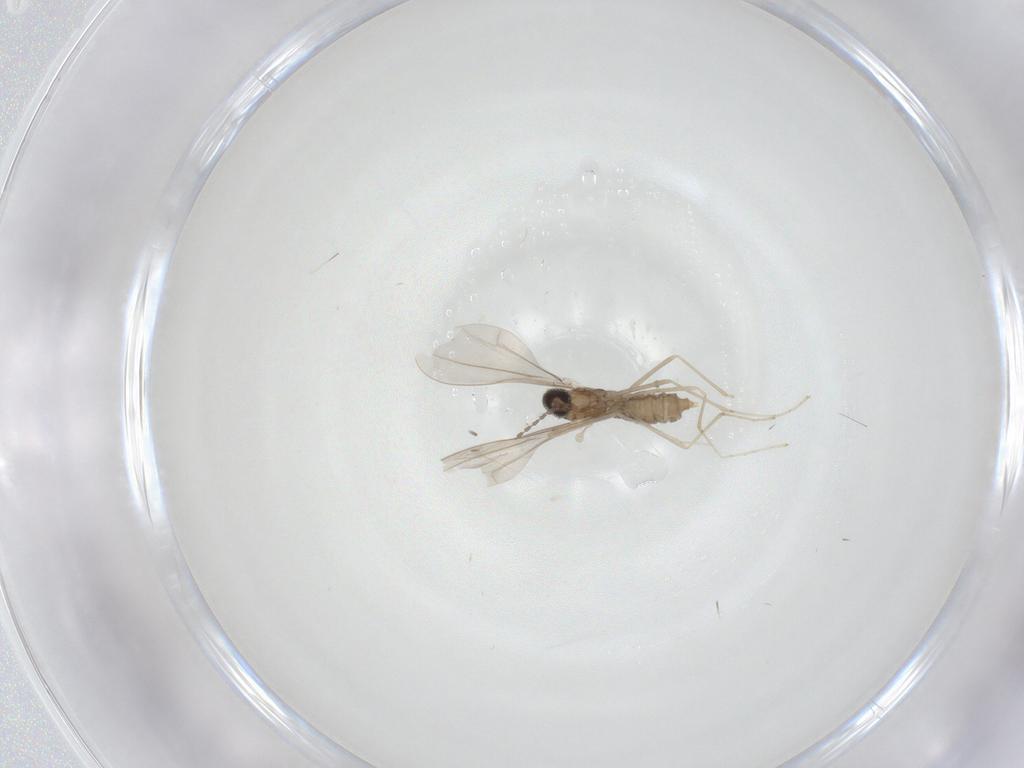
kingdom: Animalia
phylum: Arthropoda
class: Insecta
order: Diptera
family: Cecidomyiidae
